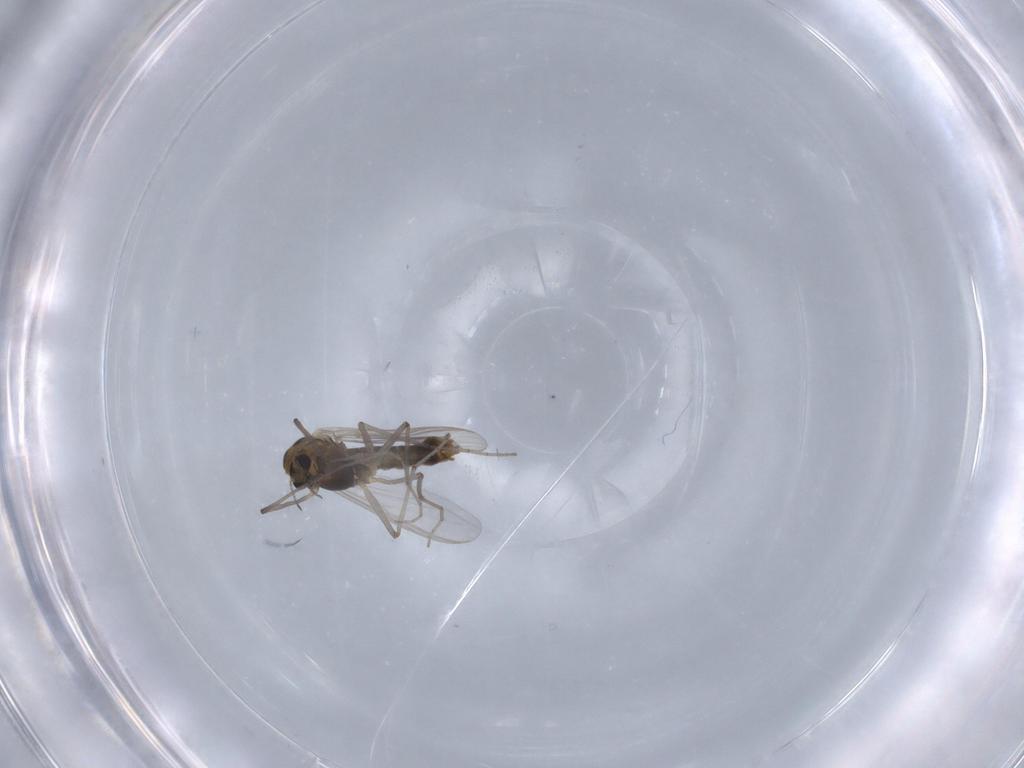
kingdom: Animalia
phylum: Arthropoda
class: Insecta
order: Diptera
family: Chironomidae
